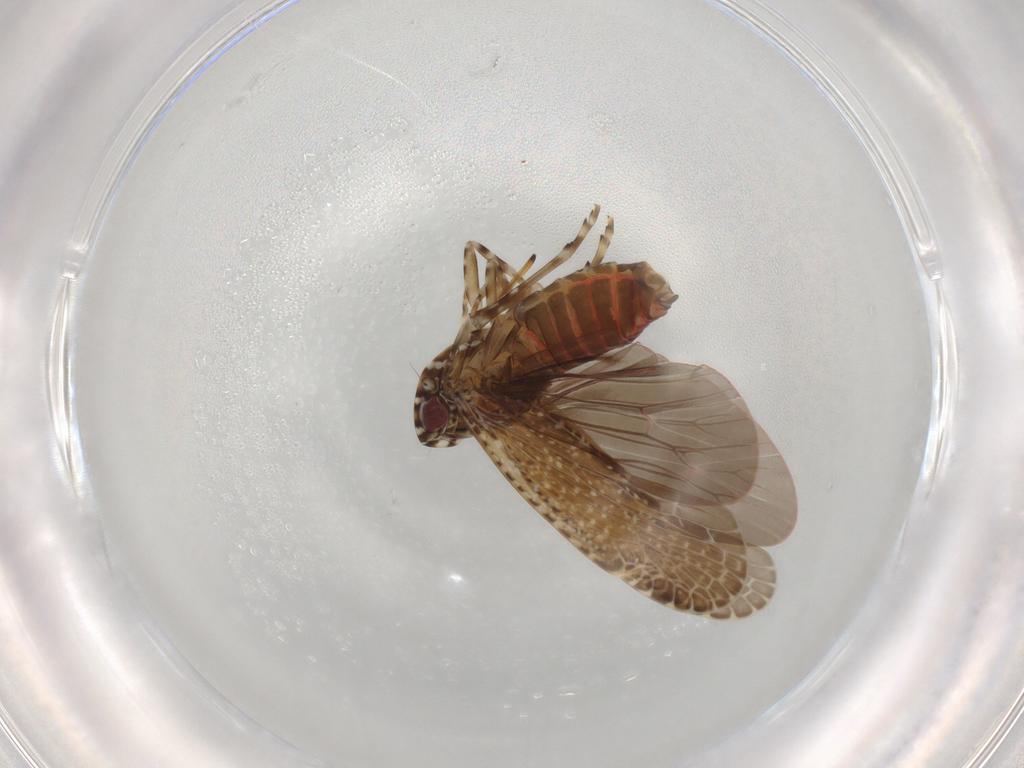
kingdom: Animalia
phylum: Arthropoda
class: Insecta
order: Hemiptera
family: Achilidae
